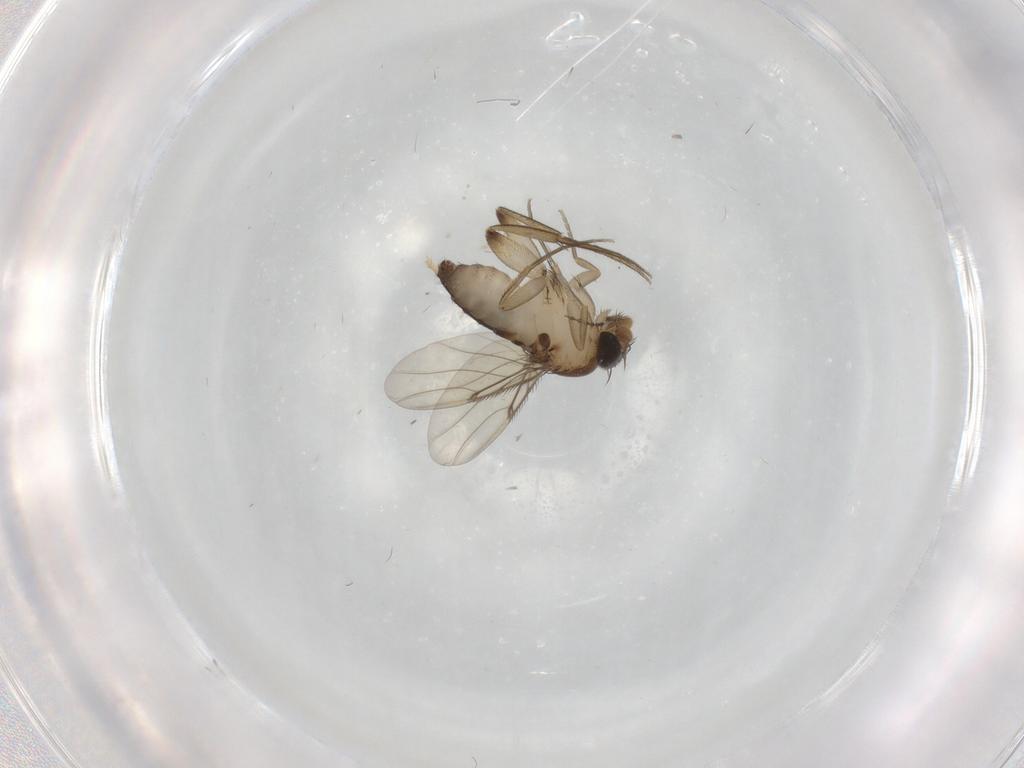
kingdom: Animalia
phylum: Arthropoda
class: Insecta
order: Diptera
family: Phoridae
